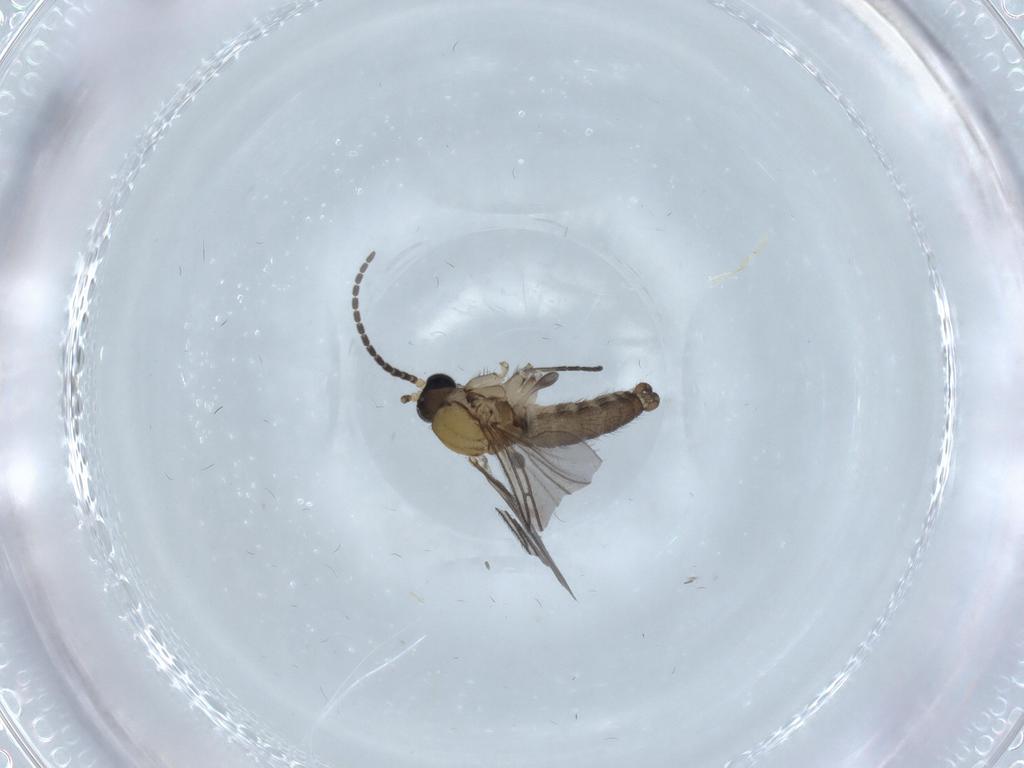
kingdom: Animalia
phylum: Arthropoda
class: Insecta
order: Diptera
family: Sciaridae
